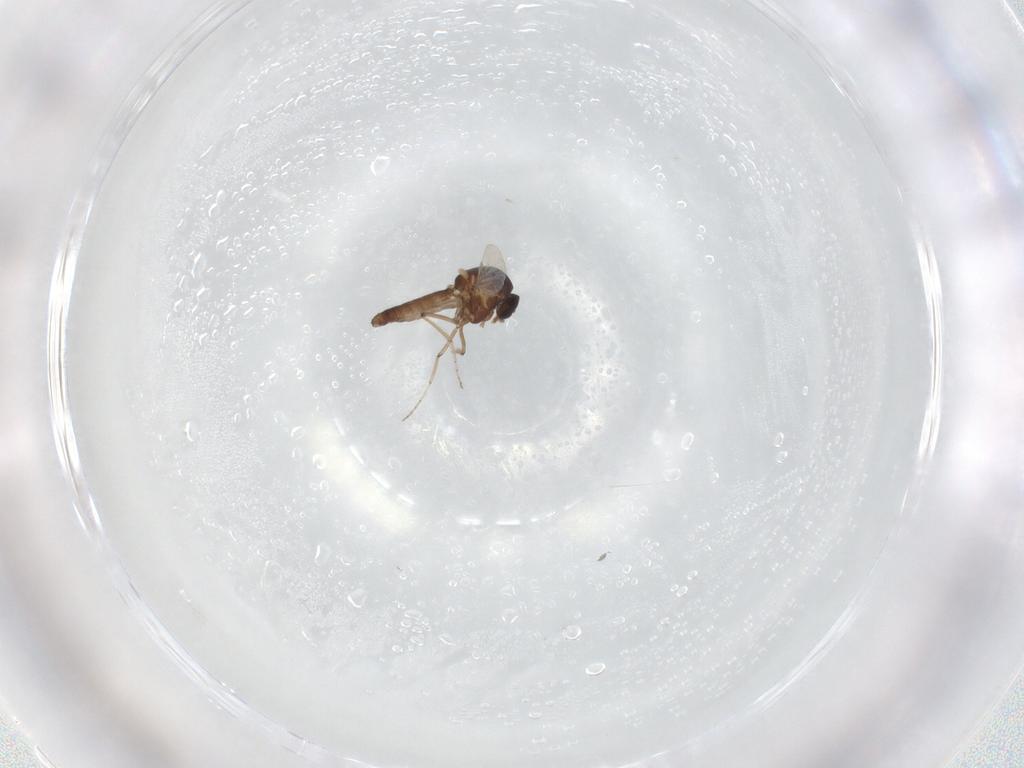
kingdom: Animalia
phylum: Arthropoda
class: Insecta
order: Diptera
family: Ceratopogonidae
